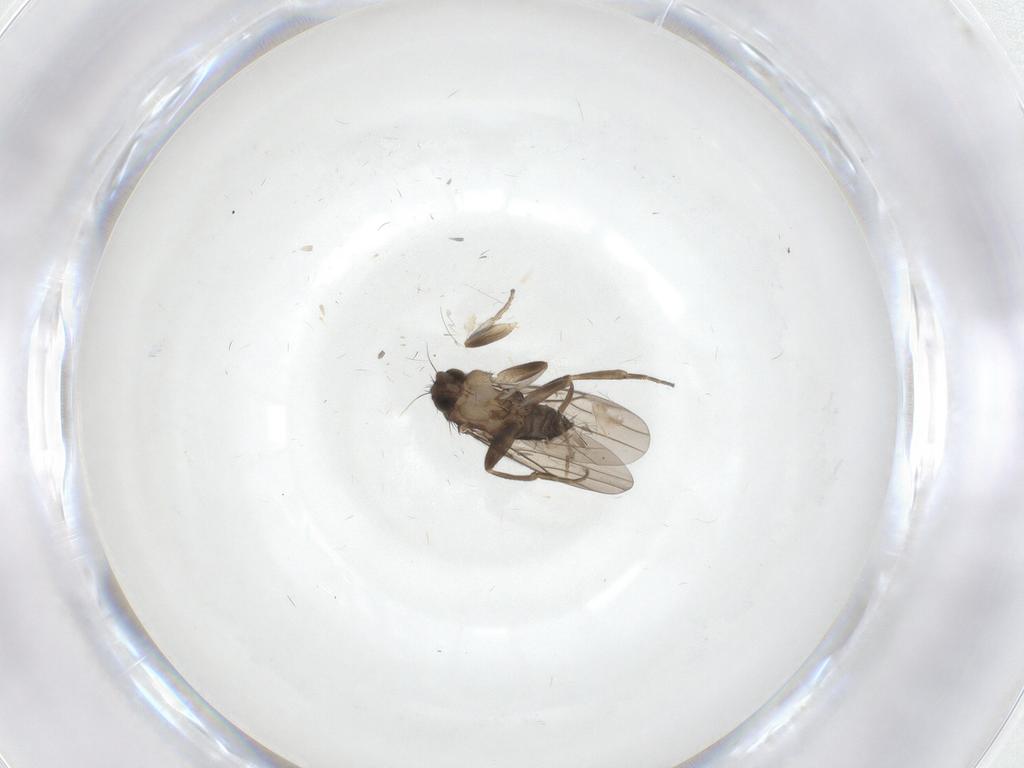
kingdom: Animalia
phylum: Arthropoda
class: Insecta
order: Diptera
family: Phoridae
